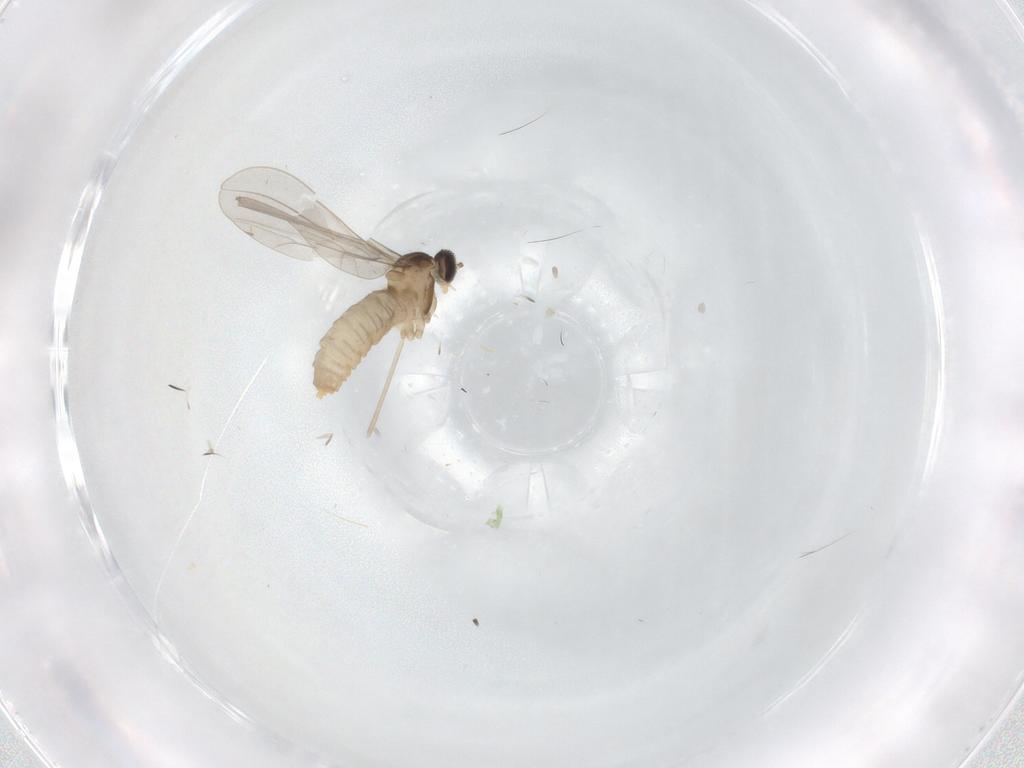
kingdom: Animalia
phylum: Arthropoda
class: Insecta
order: Diptera
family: Cecidomyiidae
